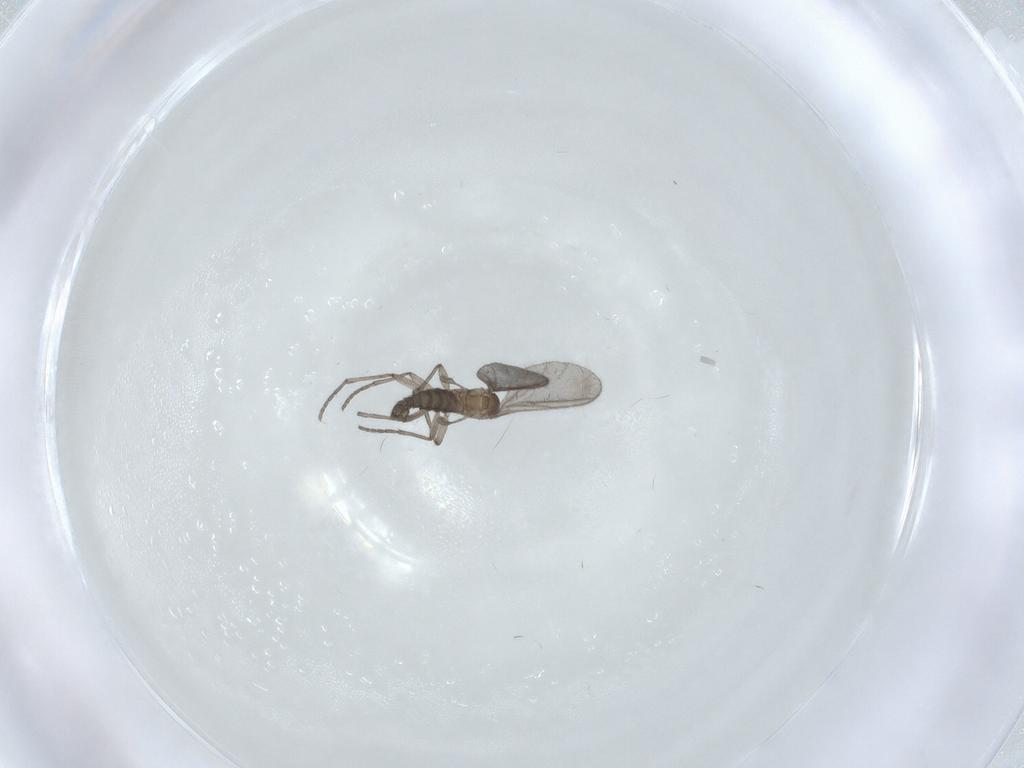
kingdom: Animalia
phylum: Arthropoda
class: Insecta
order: Diptera
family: Sciaridae
